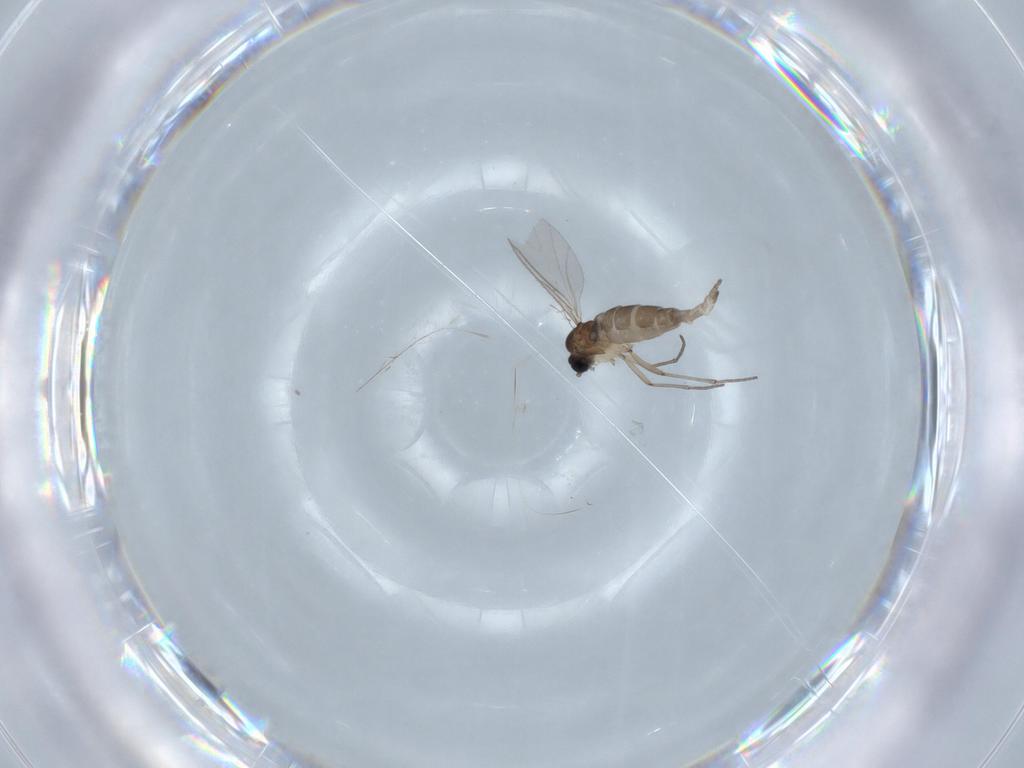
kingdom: Animalia
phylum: Arthropoda
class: Insecta
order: Diptera
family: Sciaridae
